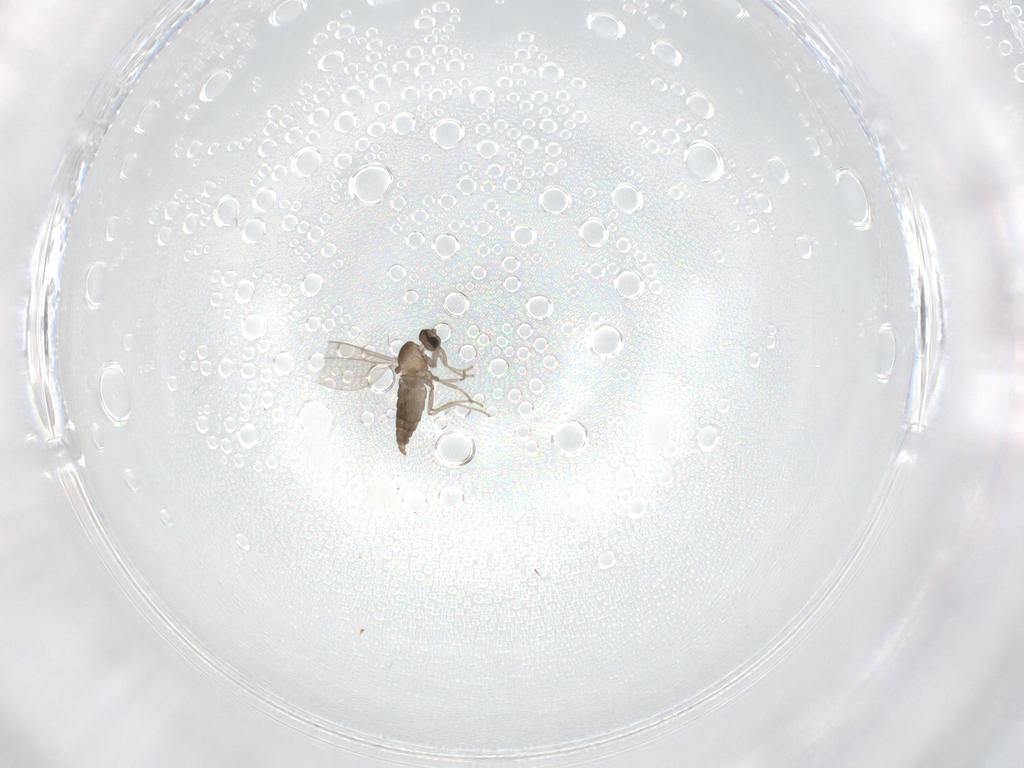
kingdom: Animalia
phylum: Arthropoda
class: Insecta
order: Diptera
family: Cecidomyiidae
